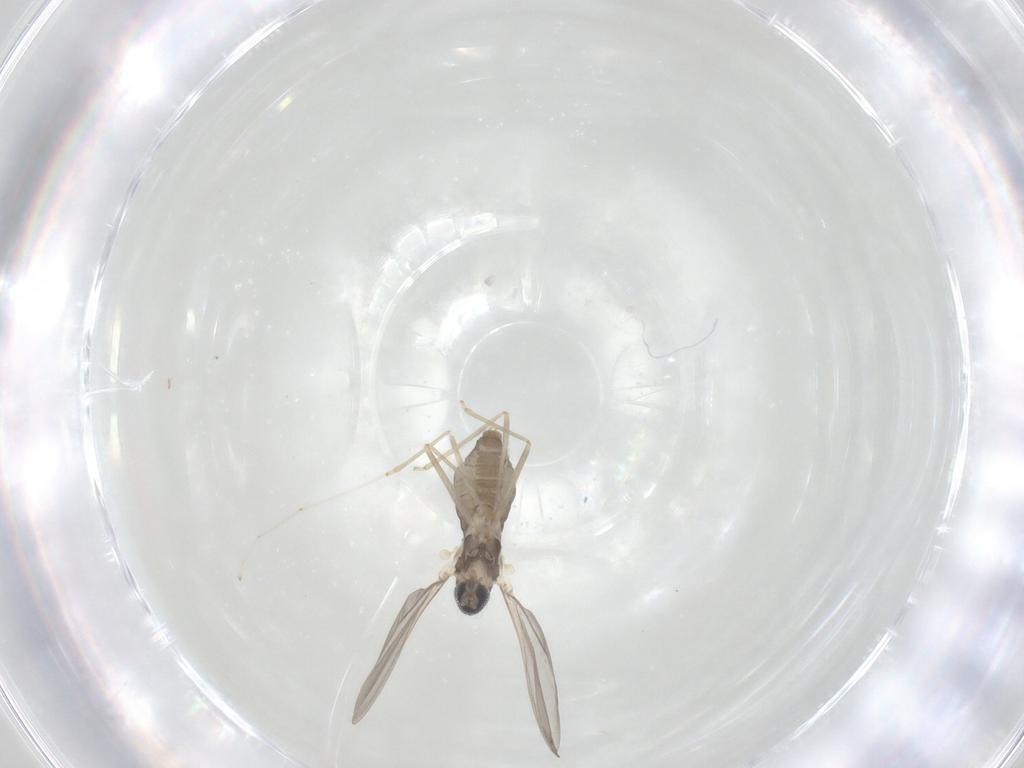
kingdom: Animalia
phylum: Arthropoda
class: Insecta
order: Diptera
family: Cecidomyiidae
